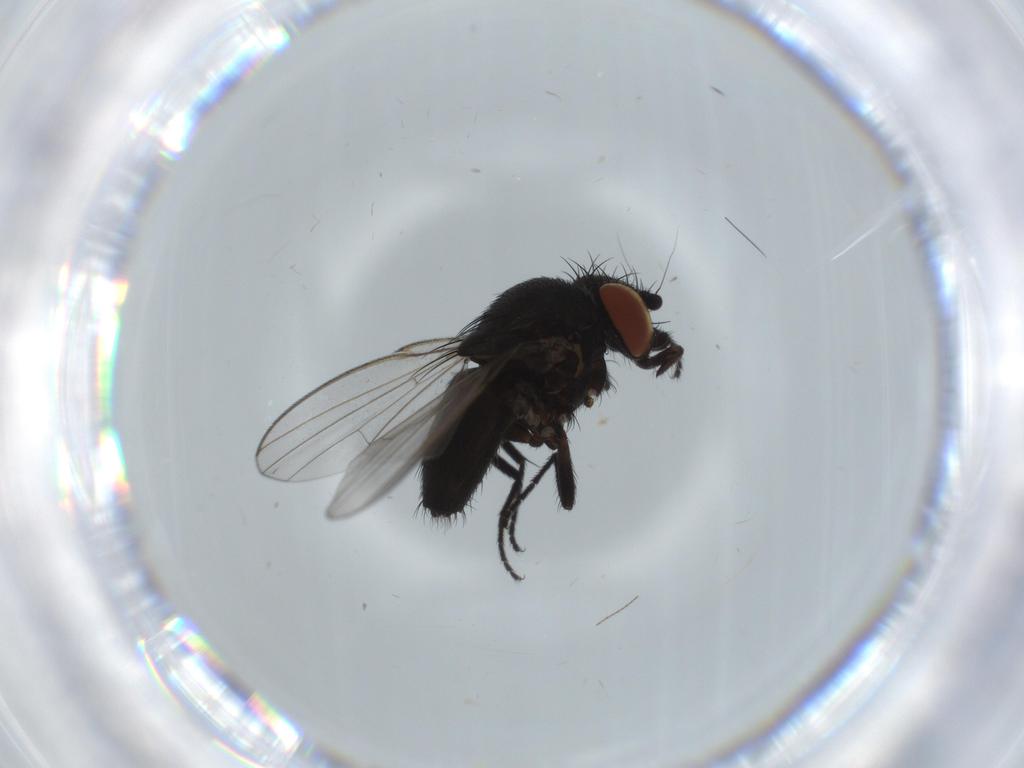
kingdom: Animalia
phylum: Arthropoda
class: Insecta
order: Diptera
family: Milichiidae
